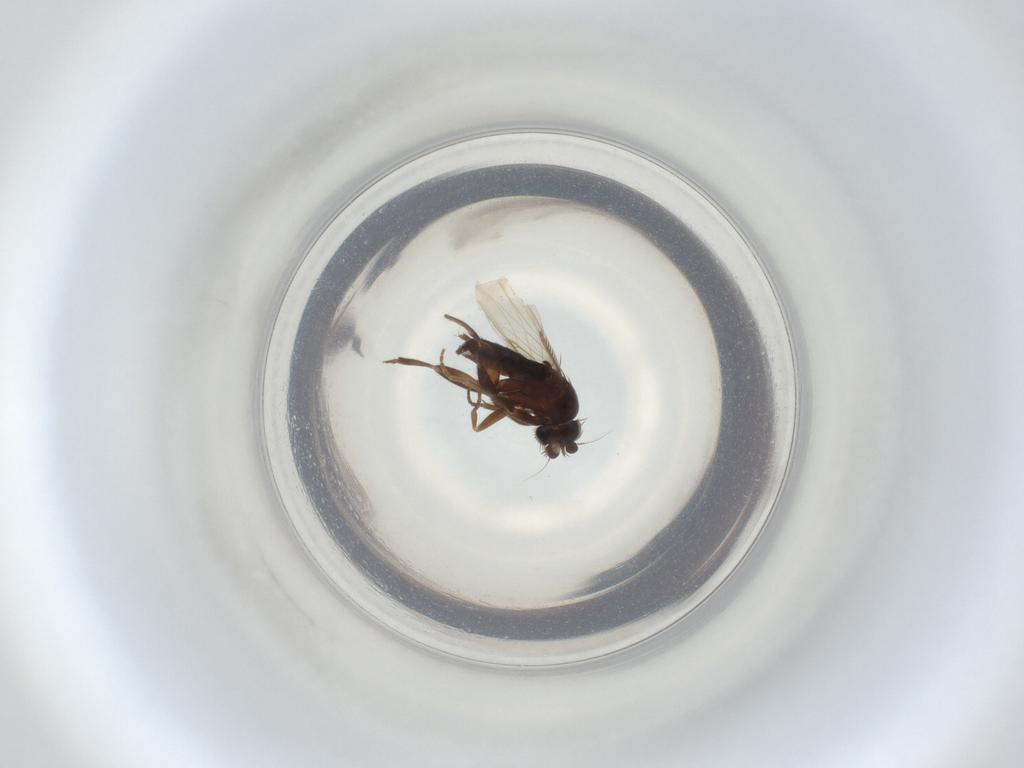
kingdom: Animalia
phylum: Arthropoda
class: Insecta
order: Diptera
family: Phoridae
